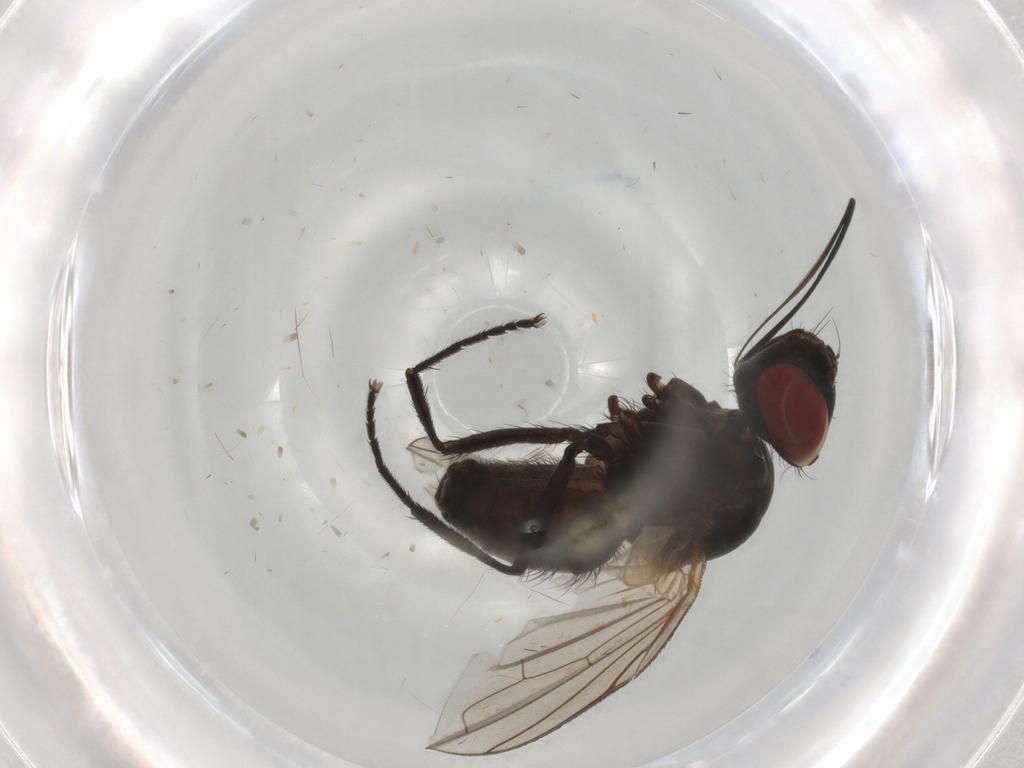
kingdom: Animalia
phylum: Arthropoda
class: Insecta
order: Diptera
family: Tachinidae
